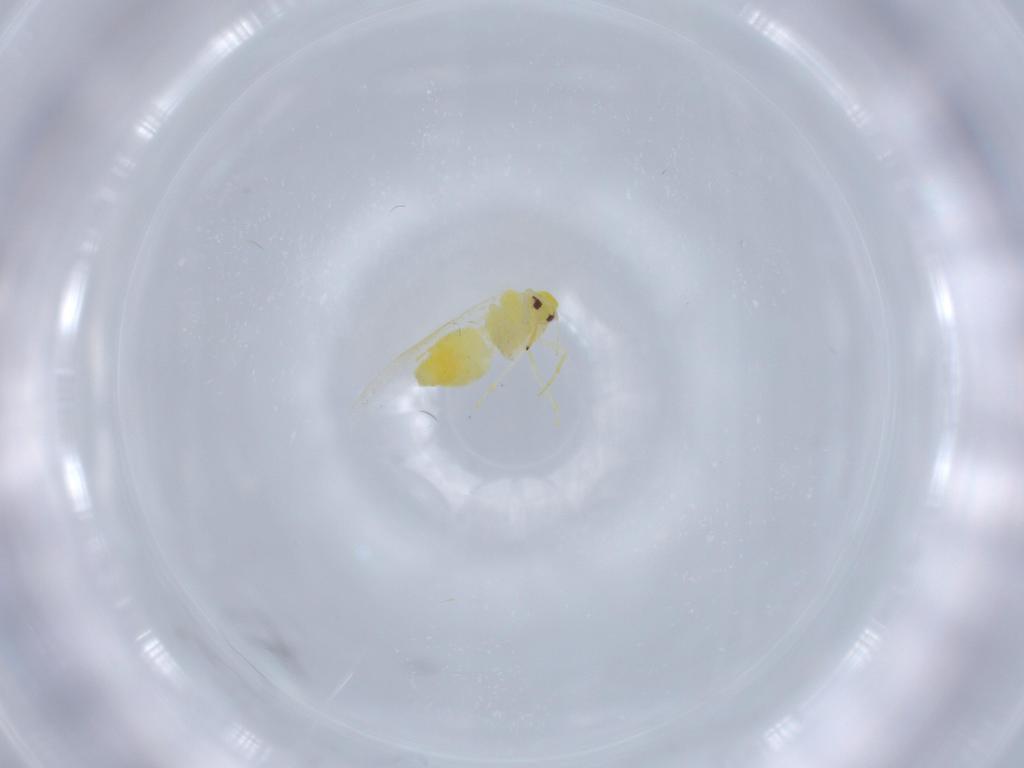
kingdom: Animalia
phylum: Arthropoda
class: Insecta
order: Hemiptera
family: Aleyrodidae
